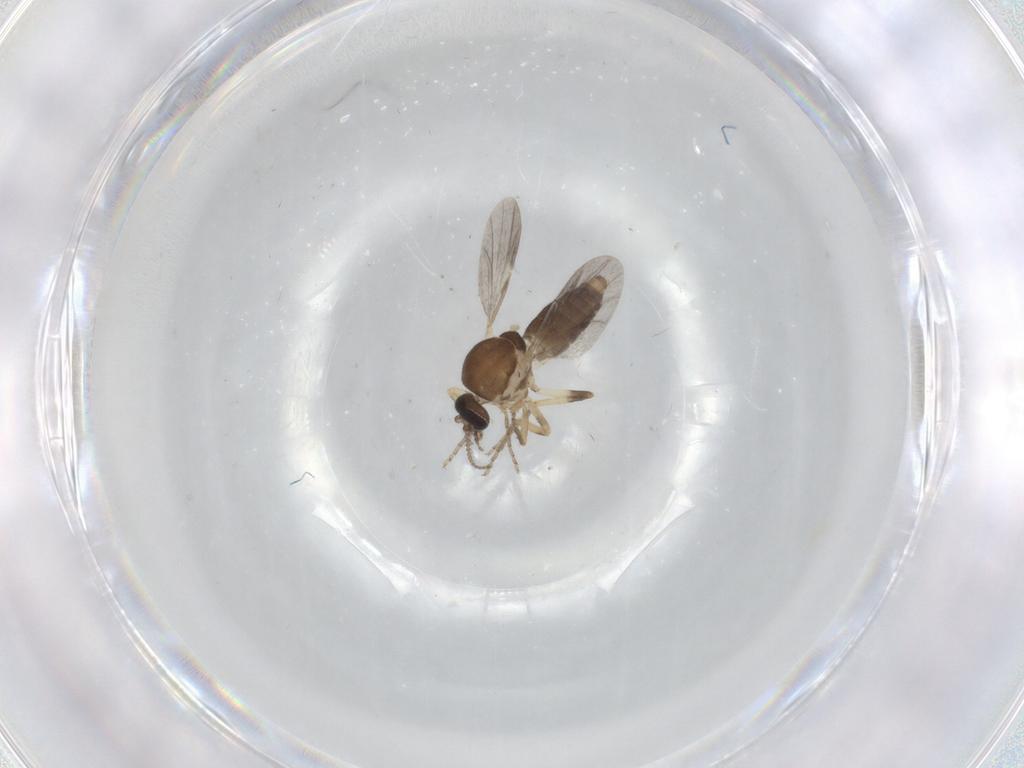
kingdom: Animalia
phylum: Arthropoda
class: Insecta
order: Diptera
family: Ceratopogonidae
